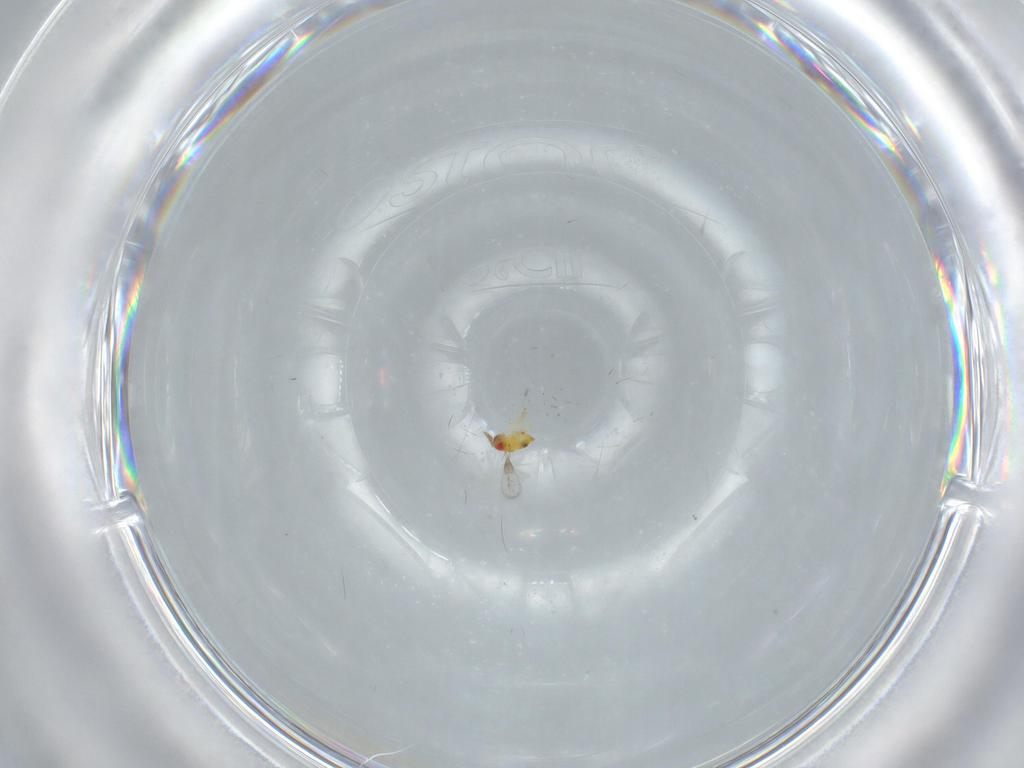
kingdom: Animalia
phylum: Arthropoda
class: Insecta
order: Hymenoptera
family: Trichogrammatidae
